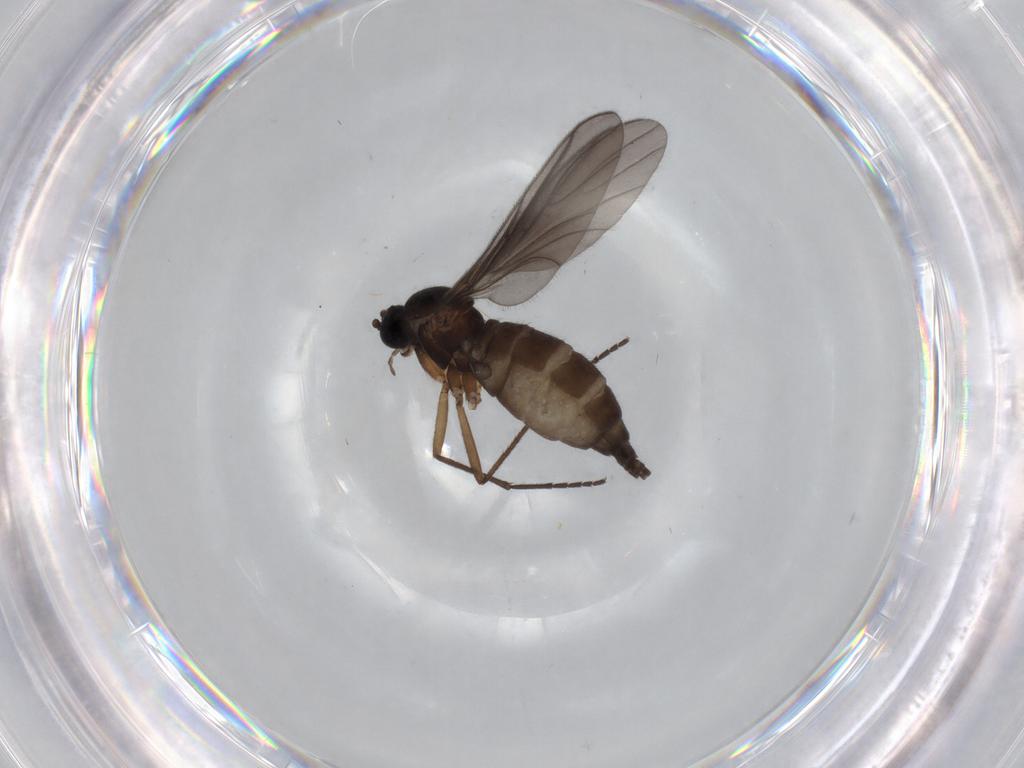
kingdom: Animalia
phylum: Arthropoda
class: Insecta
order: Diptera
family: Sciaridae
